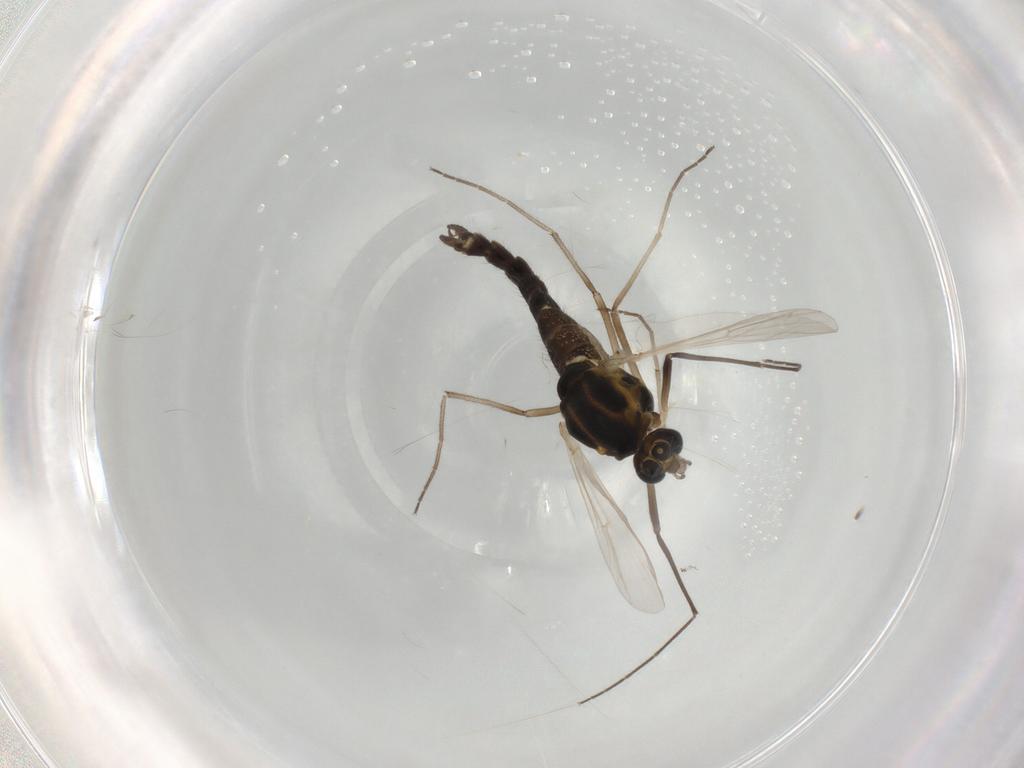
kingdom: Animalia
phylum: Arthropoda
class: Insecta
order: Diptera
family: Chironomidae
